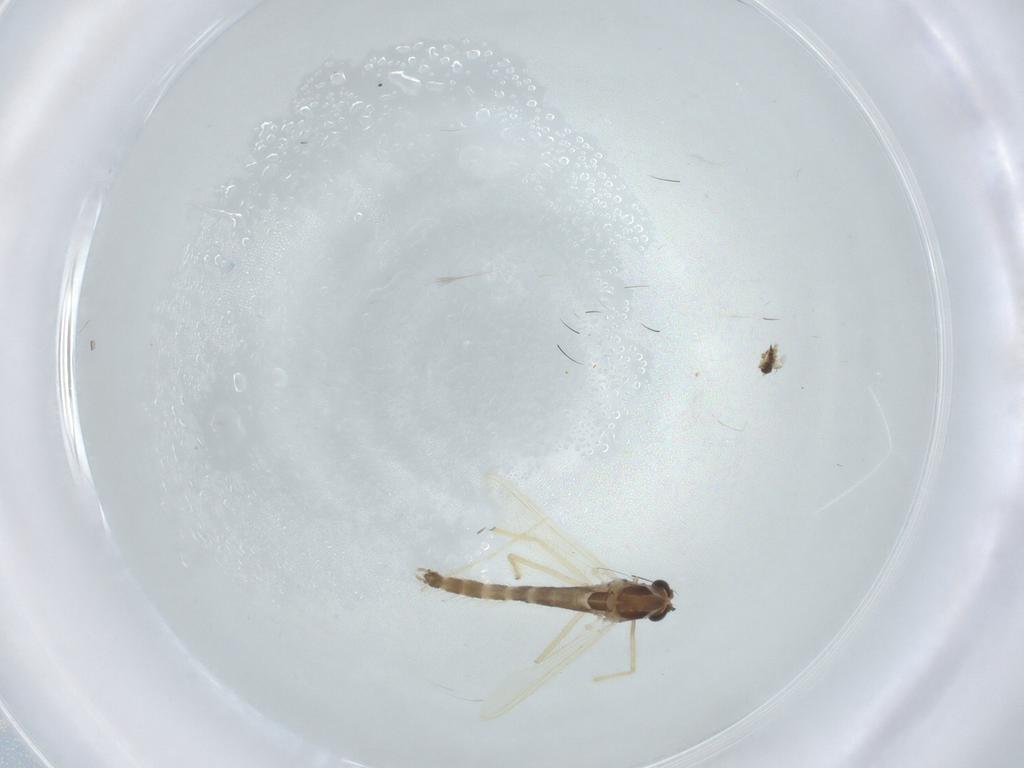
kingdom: Animalia
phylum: Arthropoda
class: Insecta
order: Diptera
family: Chironomidae
